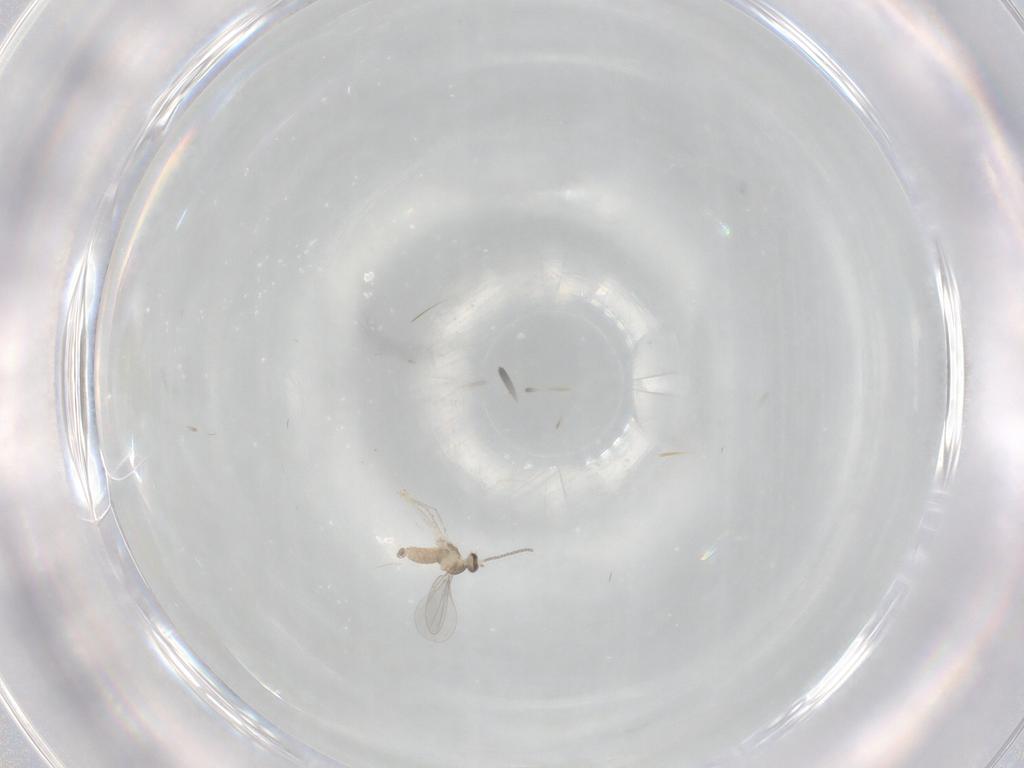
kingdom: Animalia
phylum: Arthropoda
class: Insecta
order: Diptera
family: Cecidomyiidae
